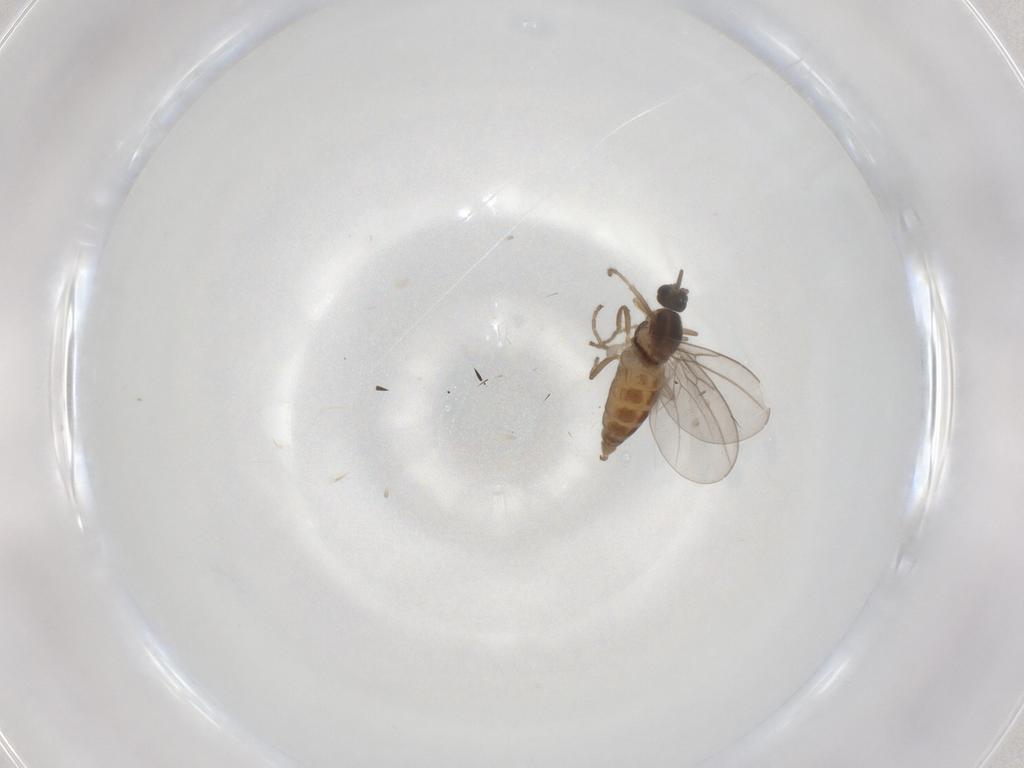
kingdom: Animalia
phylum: Arthropoda
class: Insecta
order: Diptera
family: Cecidomyiidae
